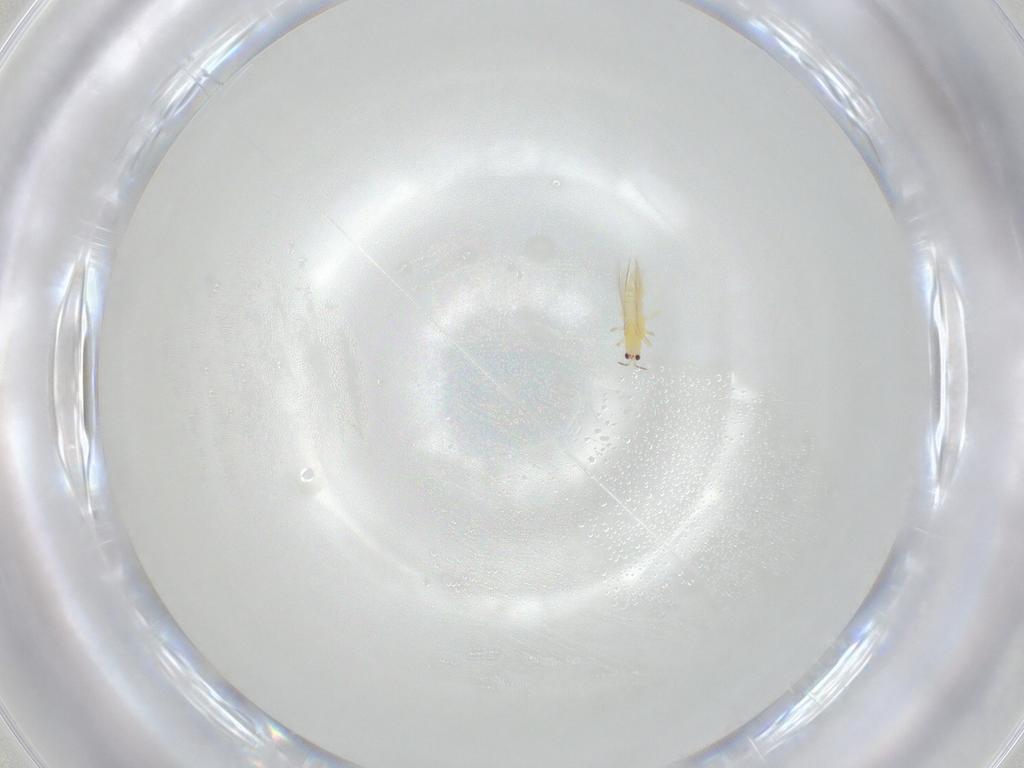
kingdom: Animalia
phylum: Arthropoda
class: Insecta
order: Thysanoptera
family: Thripidae
